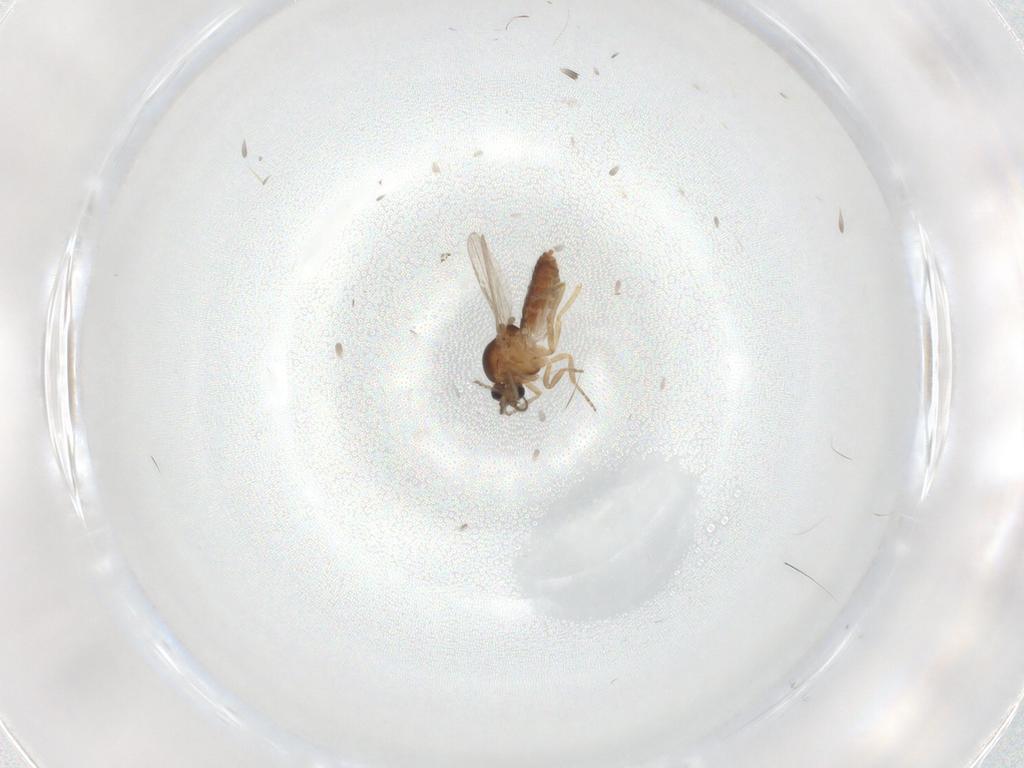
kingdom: Animalia
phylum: Arthropoda
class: Insecta
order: Diptera
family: Ceratopogonidae
